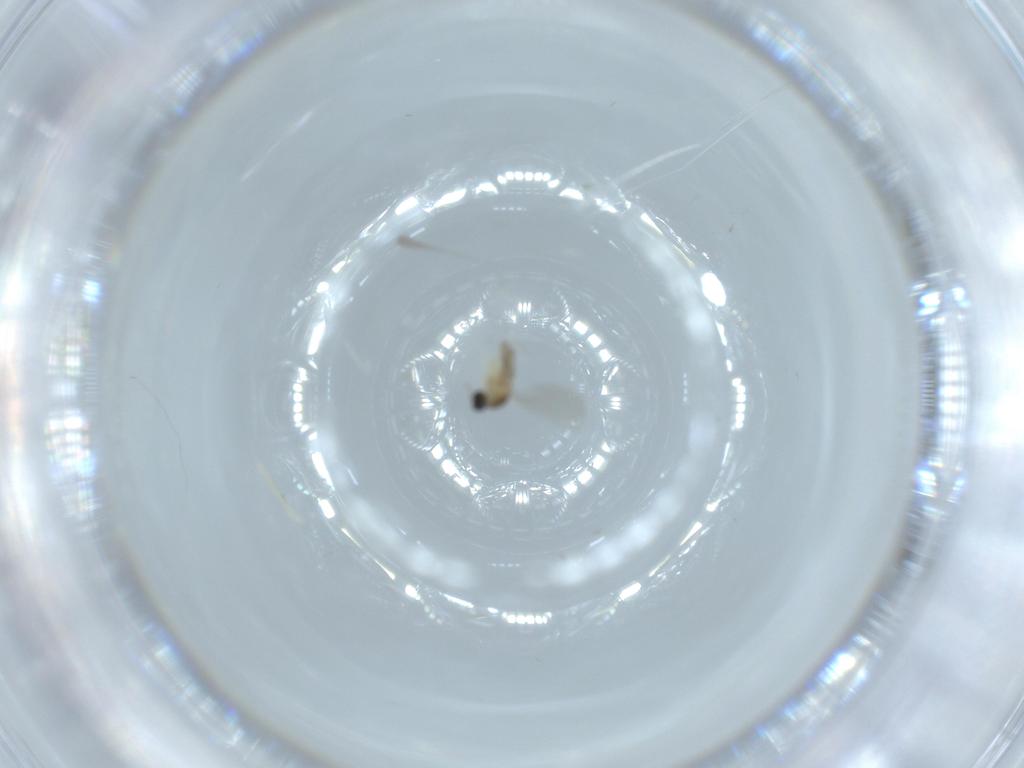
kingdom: Animalia
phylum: Arthropoda
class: Insecta
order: Diptera
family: Cecidomyiidae
